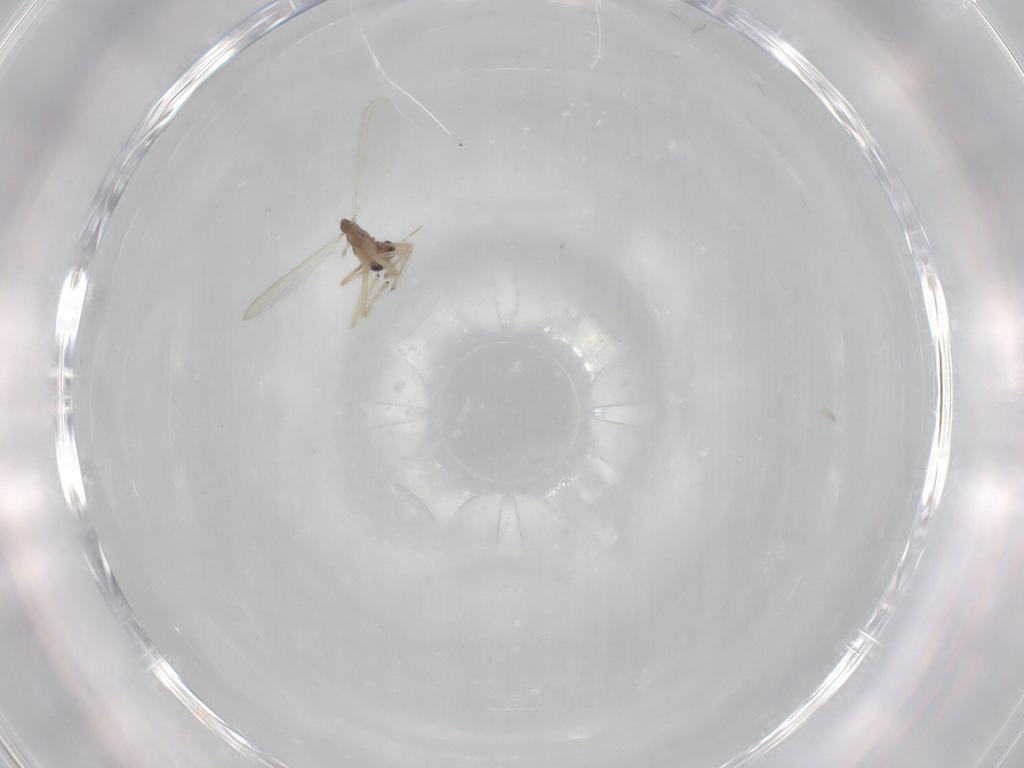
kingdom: Animalia
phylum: Arthropoda
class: Insecta
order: Diptera
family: Chironomidae
